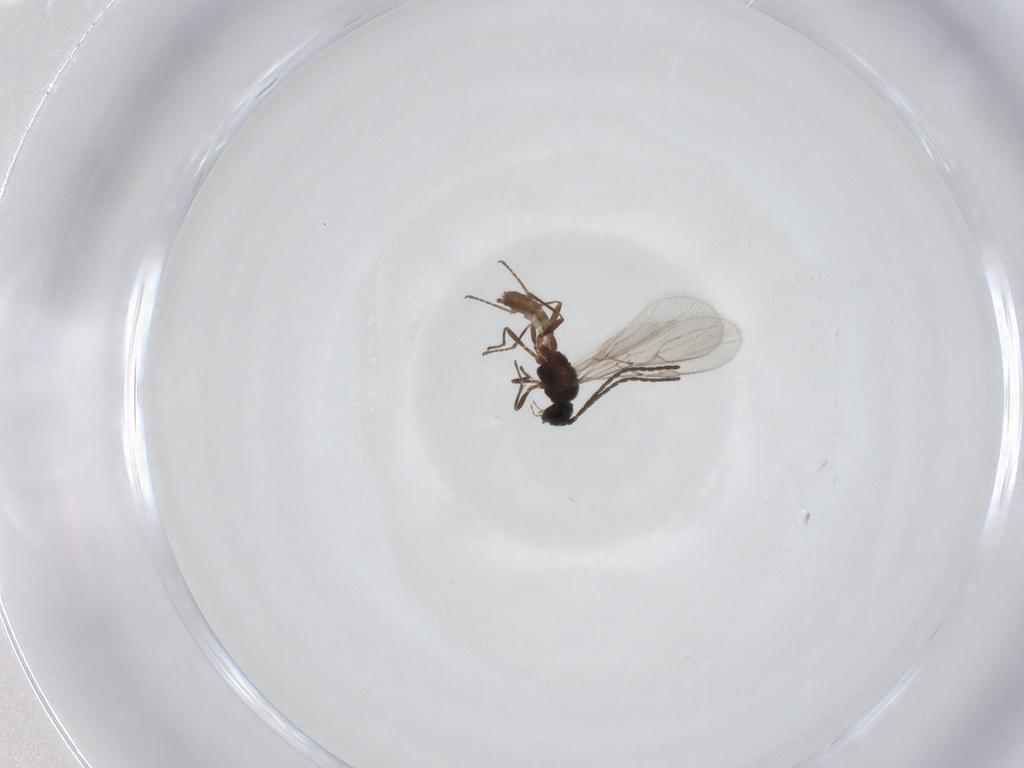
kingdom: Animalia
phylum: Arthropoda
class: Insecta
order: Hymenoptera
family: Braconidae
